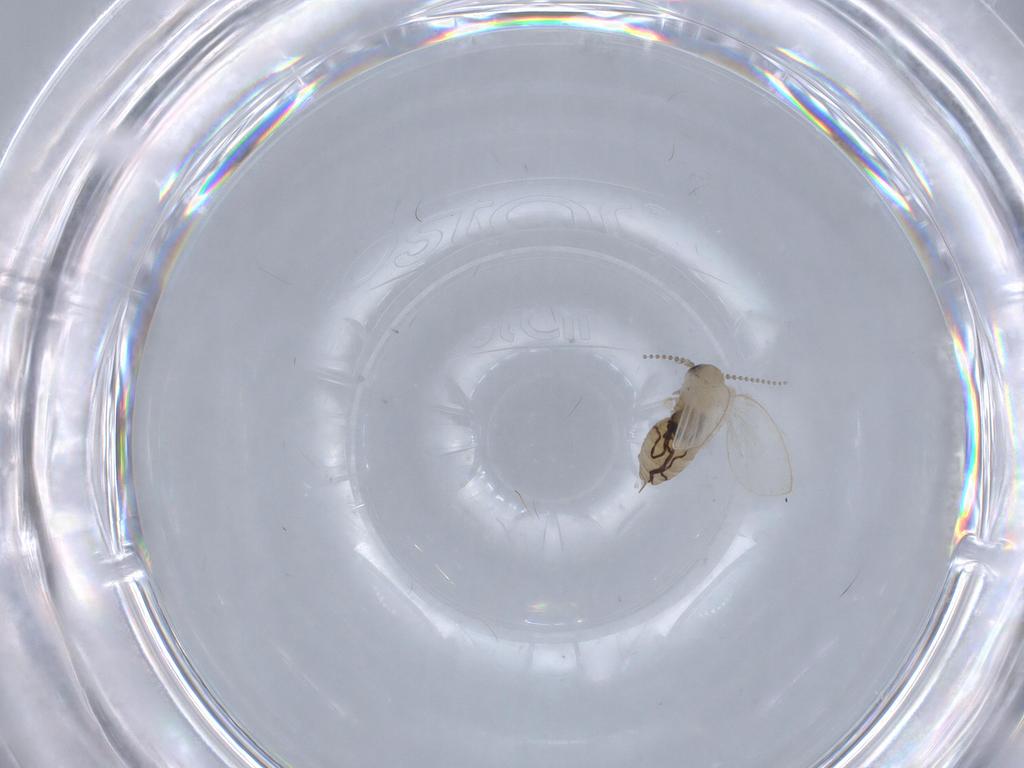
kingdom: Animalia
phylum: Arthropoda
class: Insecta
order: Diptera
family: Psychodidae
